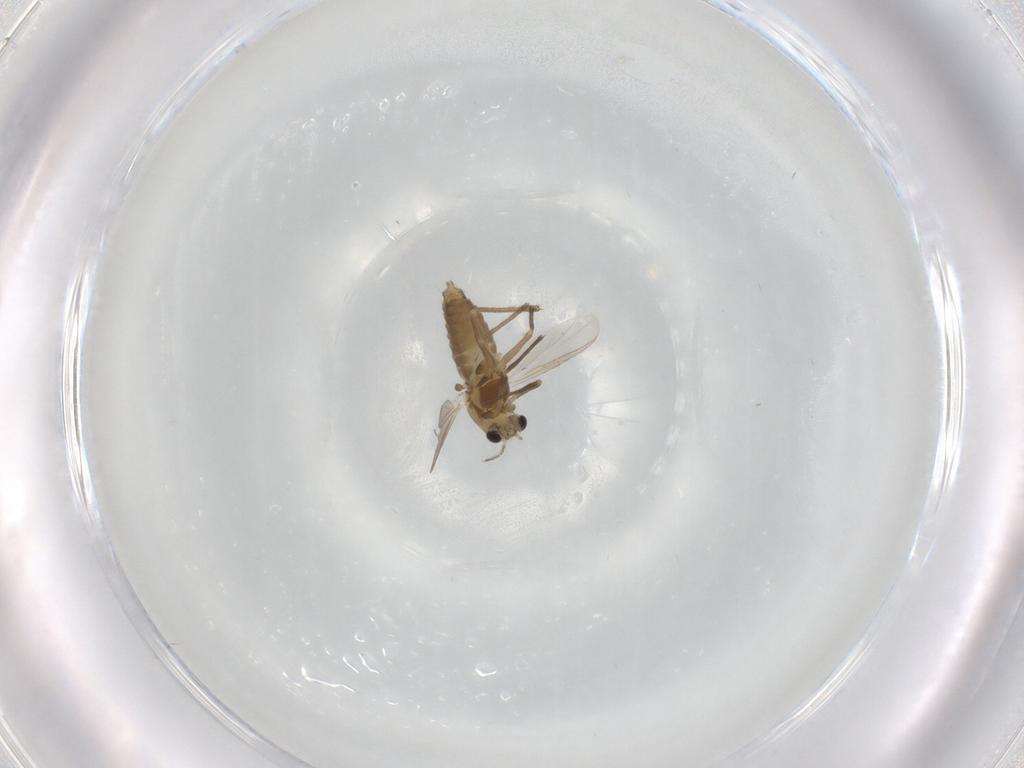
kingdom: Animalia
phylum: Arthropoda
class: Insecta
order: Diptera
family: Chironomidae
